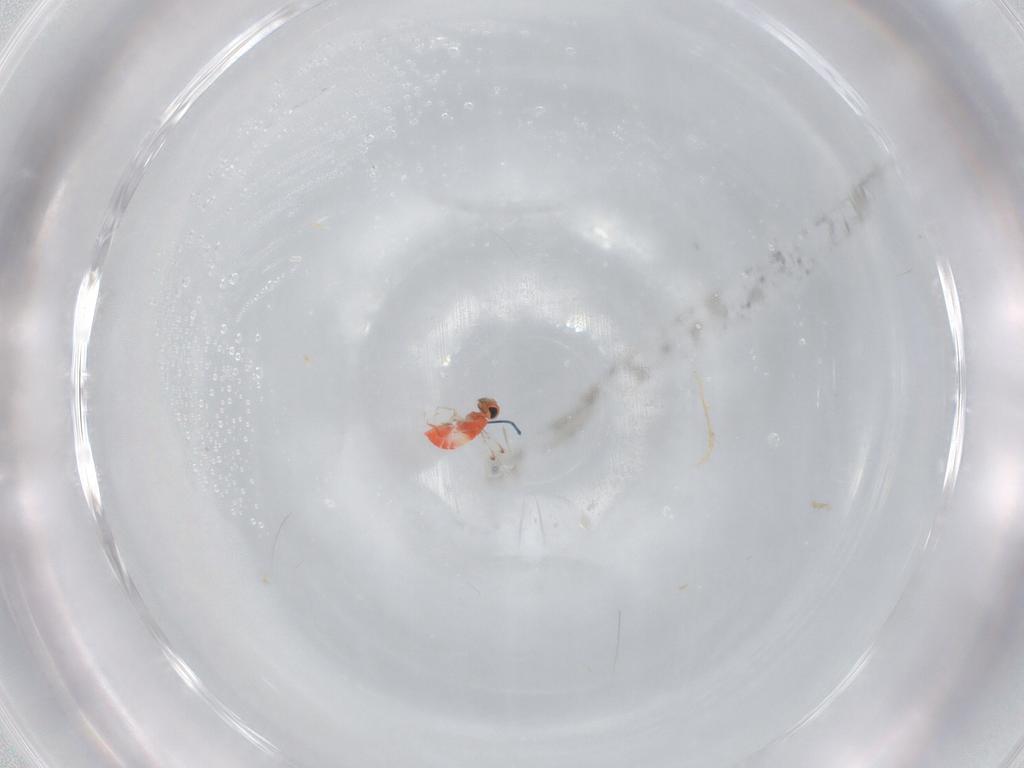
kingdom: Animalia
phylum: Arthropoda
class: Insecta
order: Hymenoptera
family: Trichogrammatidae
